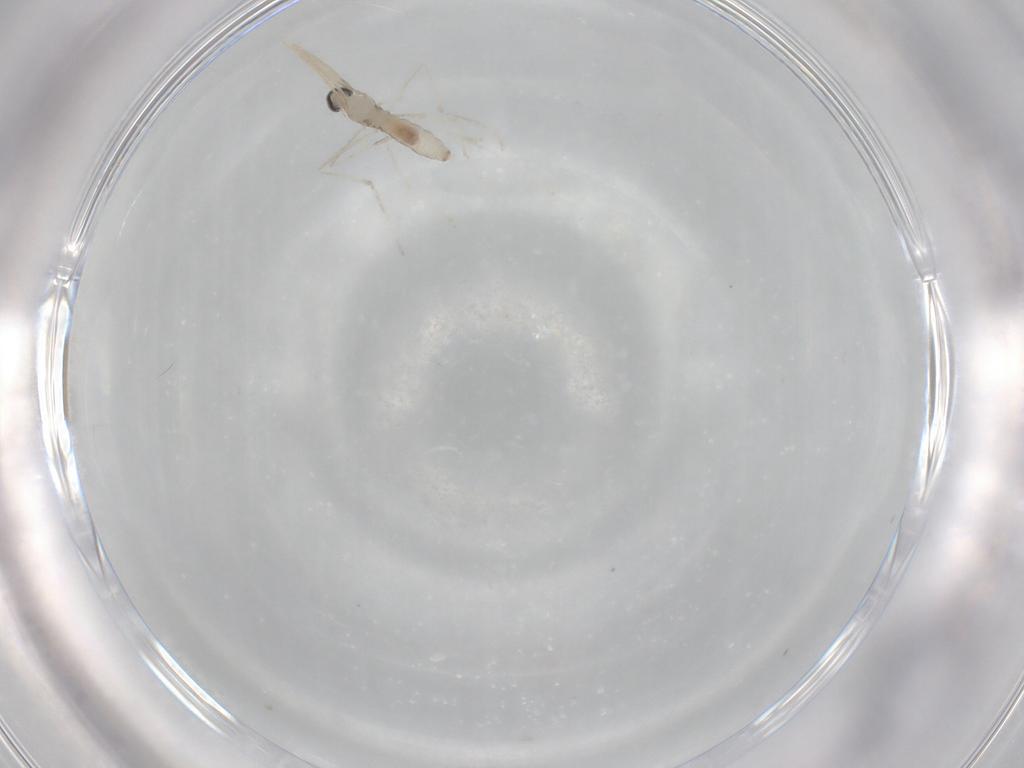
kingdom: Animalia
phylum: Arthropoda
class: Insecta
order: Diptera
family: Cecidomyiidae
